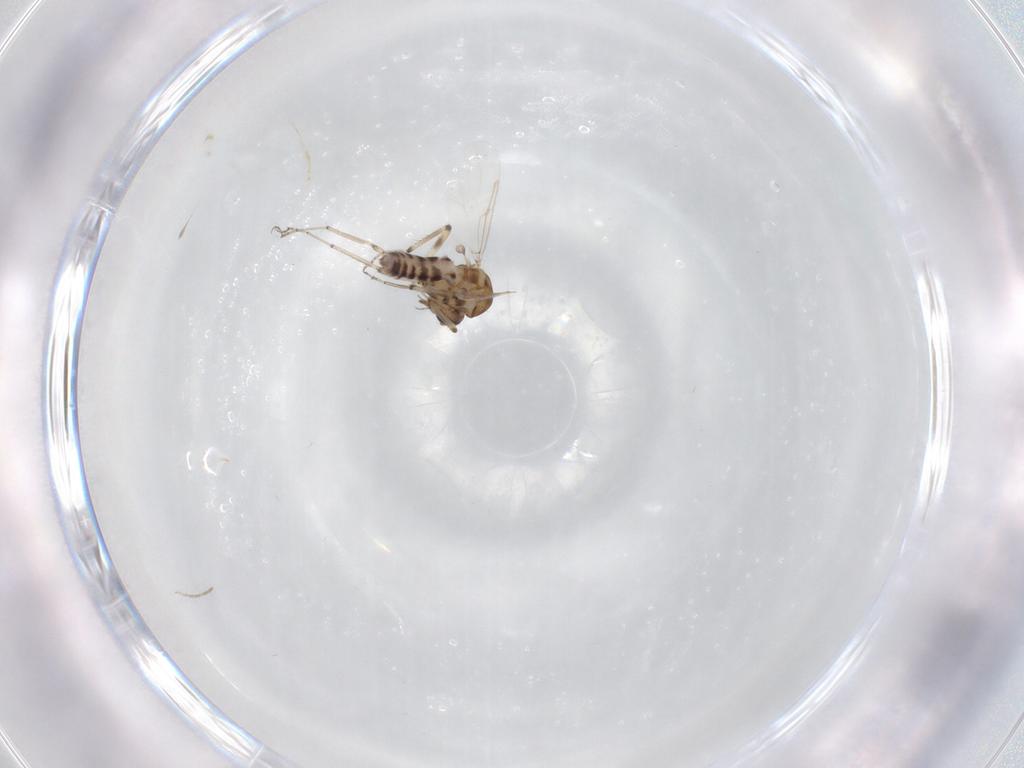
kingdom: Animalia
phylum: Arthropoda
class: Insecta
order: Diptera
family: Ceratopogonidae
